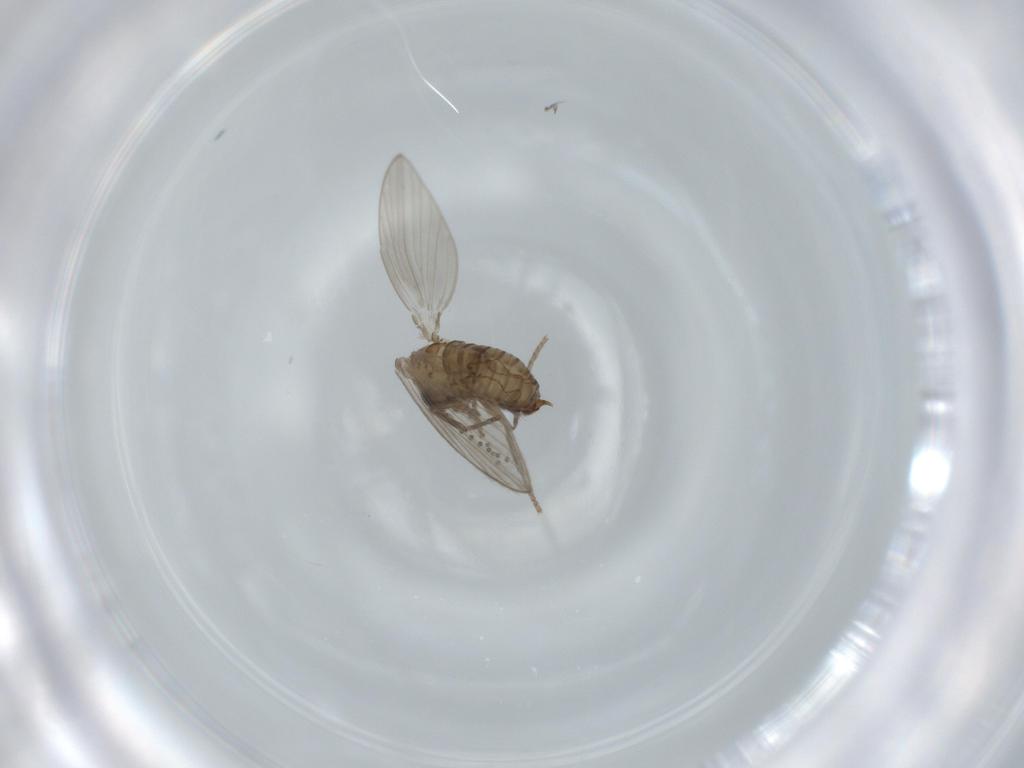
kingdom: Animalia
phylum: Arthropoda
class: Insecta
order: Diptera
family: Psychodidae
